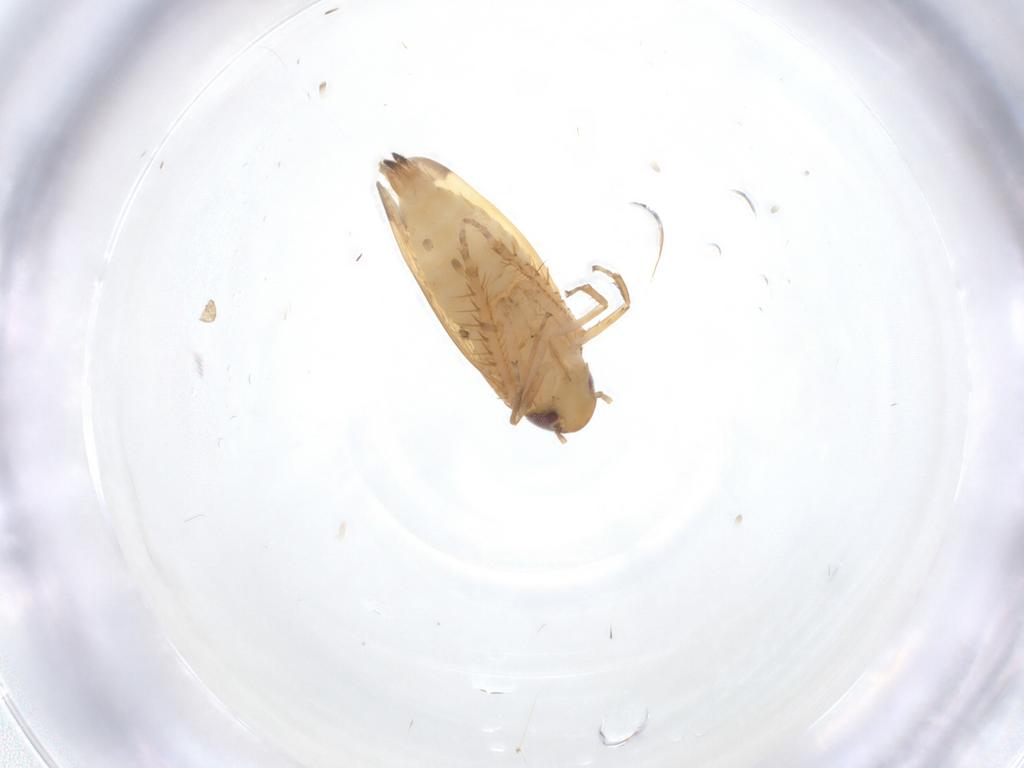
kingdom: Animalia
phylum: Arthropoda
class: Insecta
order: Hemiptera
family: Cicadellidae
